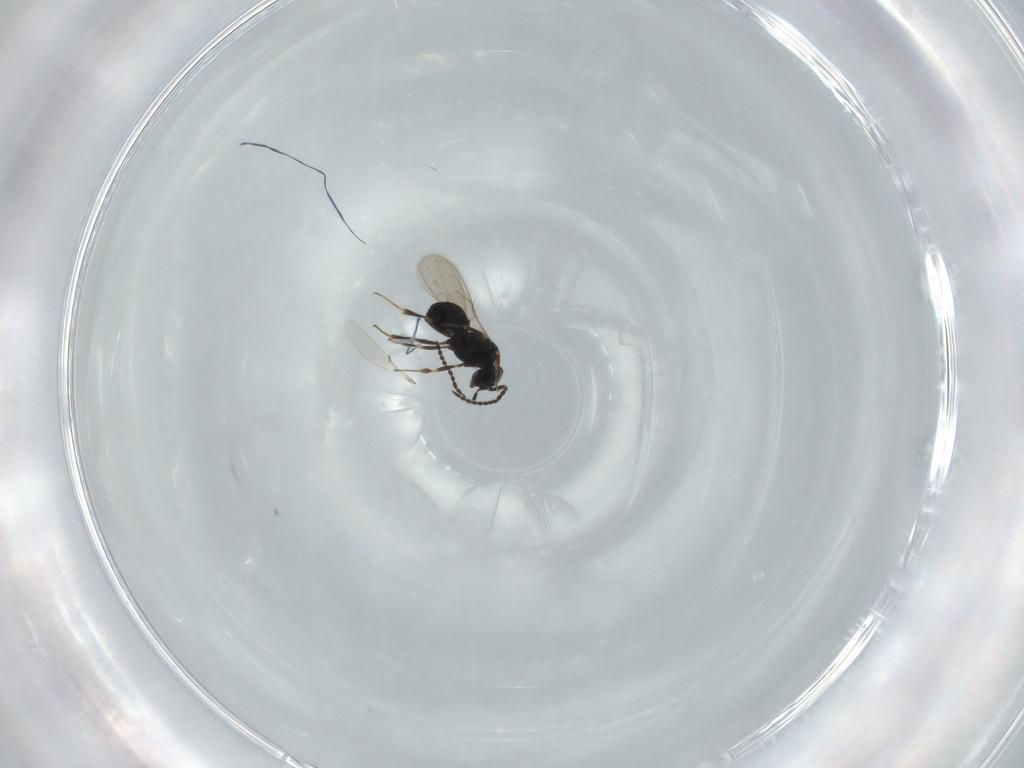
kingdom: Animalia
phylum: Arthropoda
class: Insecta
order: Hymenoptera
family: Scelionidae
